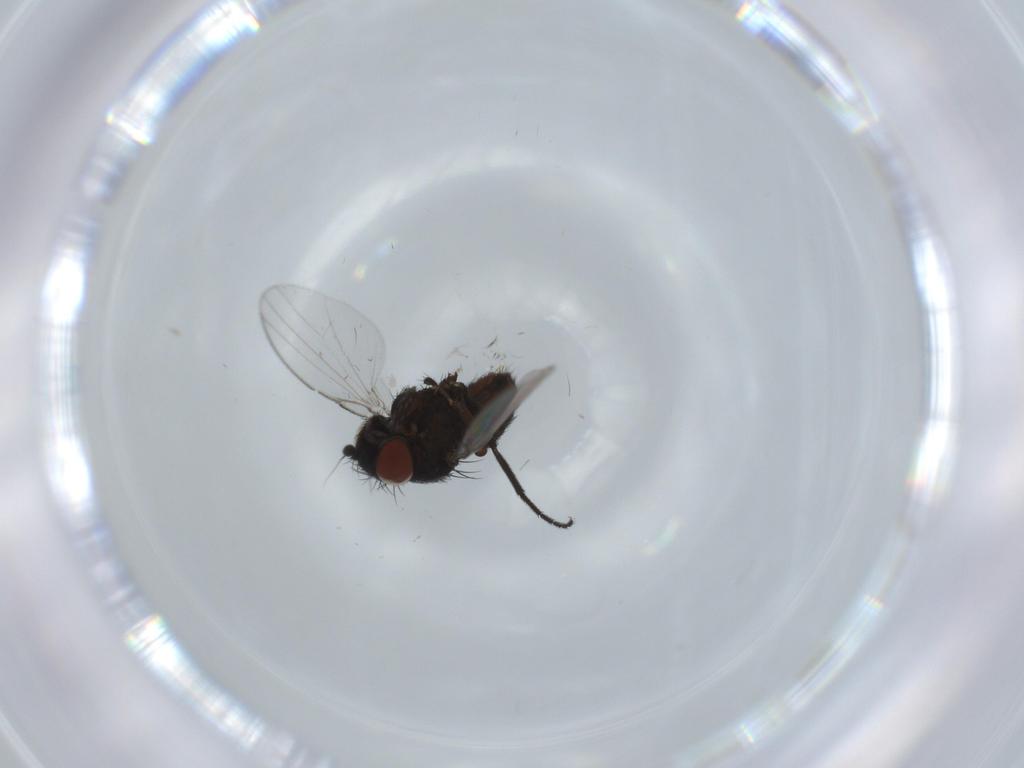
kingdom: Animalia
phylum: Arthropoda
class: Insecta
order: Diptera
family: Milichiidae
